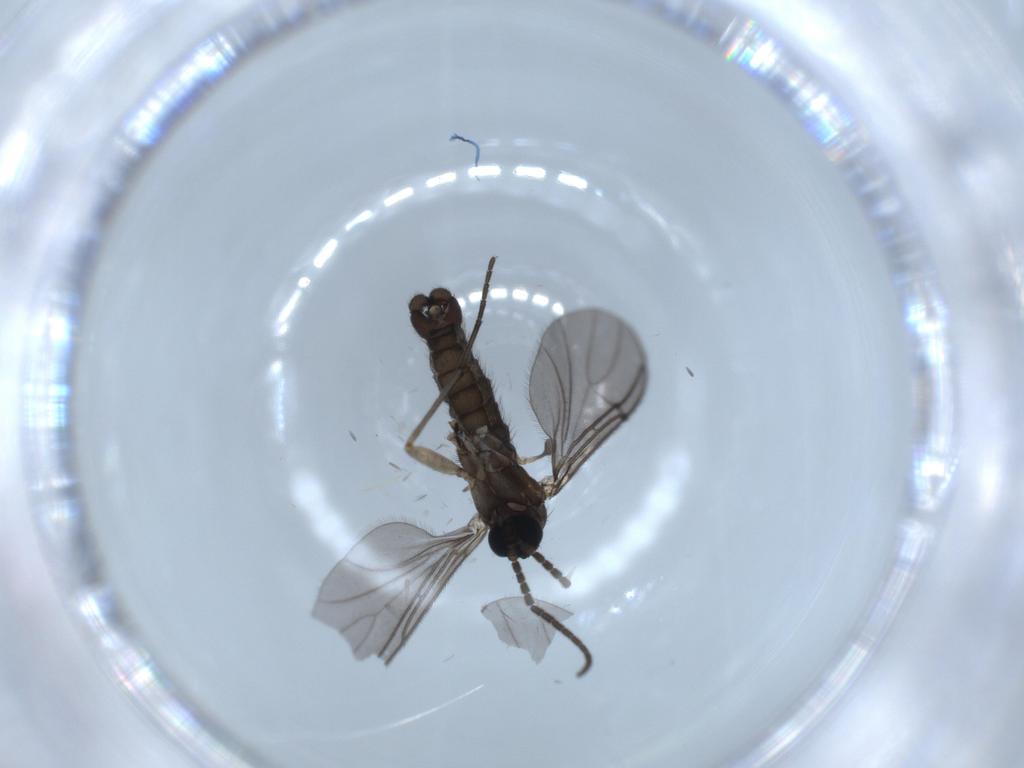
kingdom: Animalia
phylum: Arthropoda
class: Insecta
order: Diptera
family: Sciaridae
